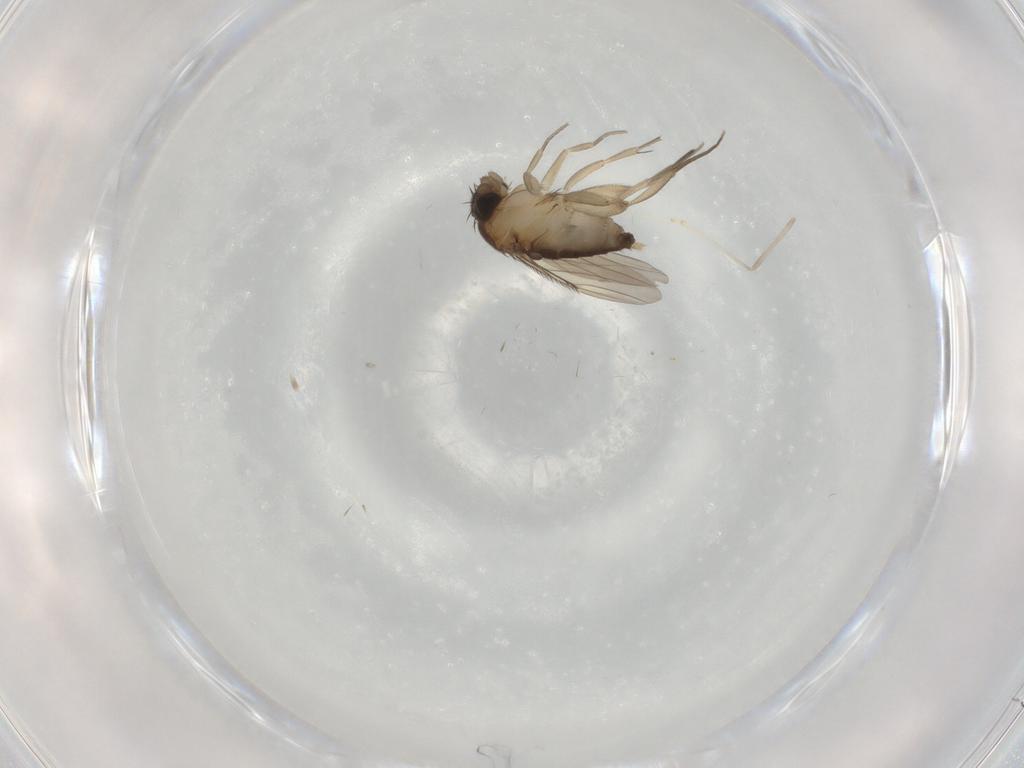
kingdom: Animalia
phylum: Arthropoda
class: Insecta
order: Diptera
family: Phoridae
